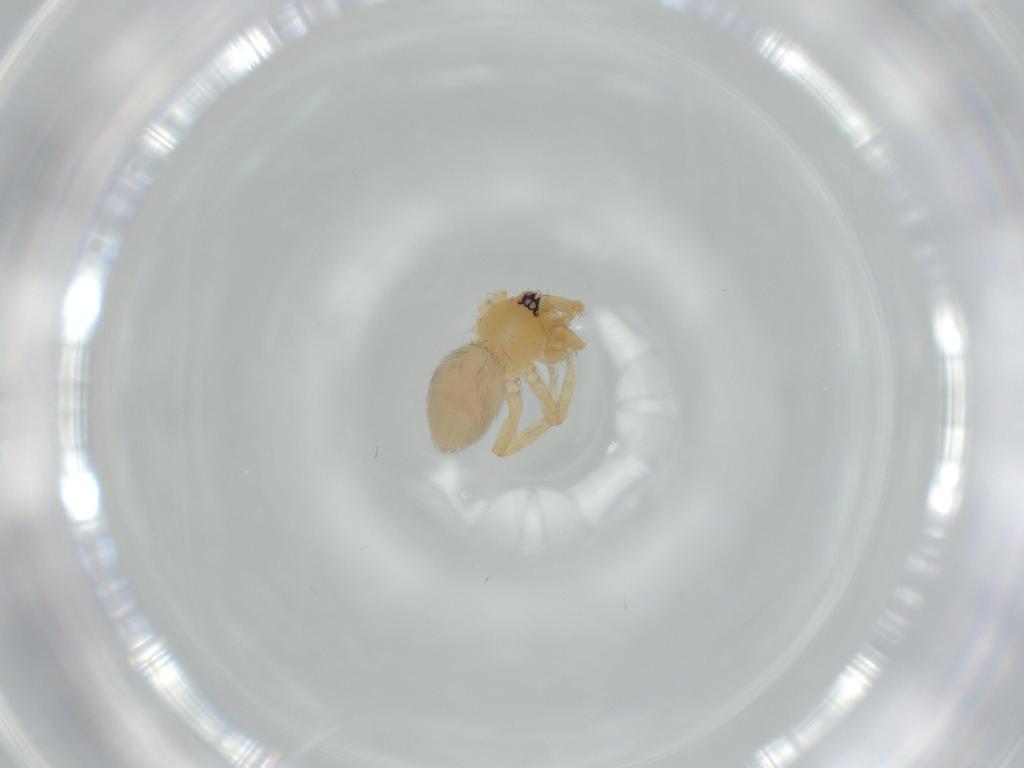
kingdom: Animalia
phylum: Arthropoda
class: Arachnida
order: Araneae
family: Oonopidae
